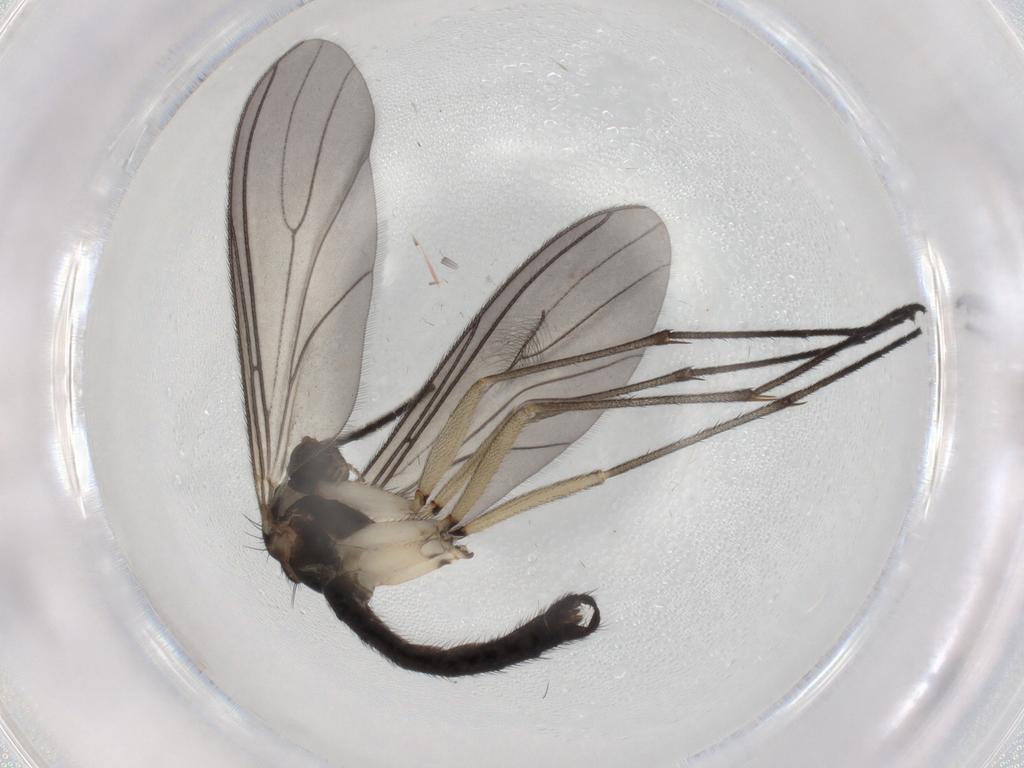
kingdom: Animalia
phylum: Arthropoda
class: Insecta
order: Diptera
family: Sciaridae
